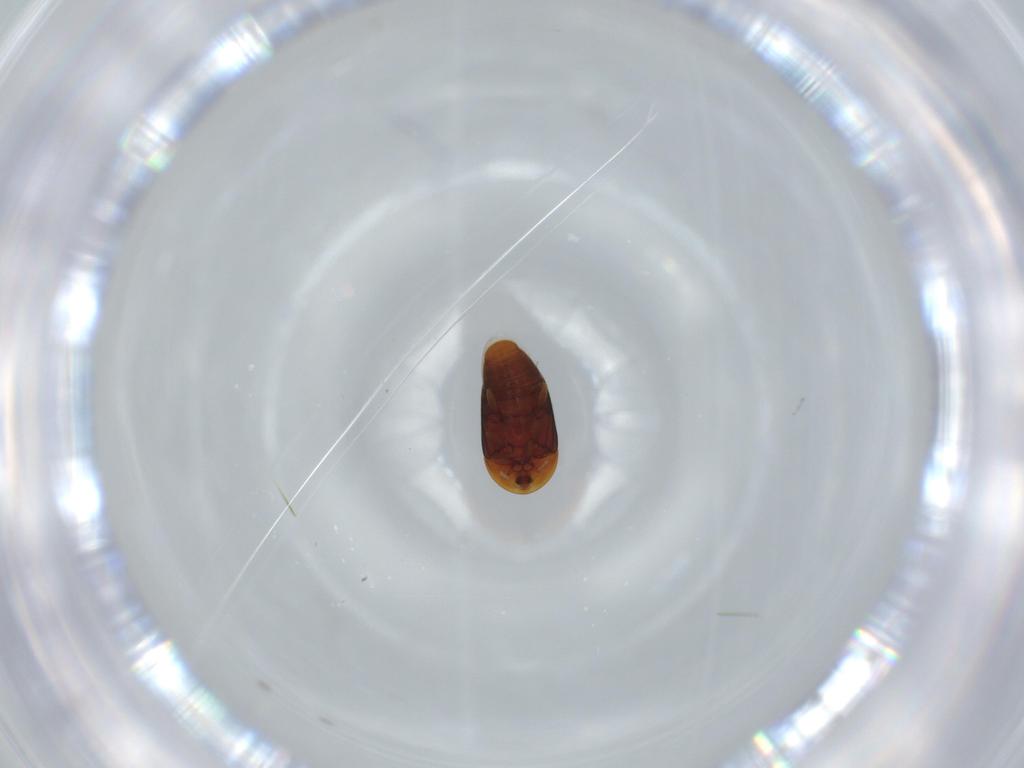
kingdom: Animalia
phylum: Arthropoda
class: Insecta
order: Coleoptera
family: Corylophidae
